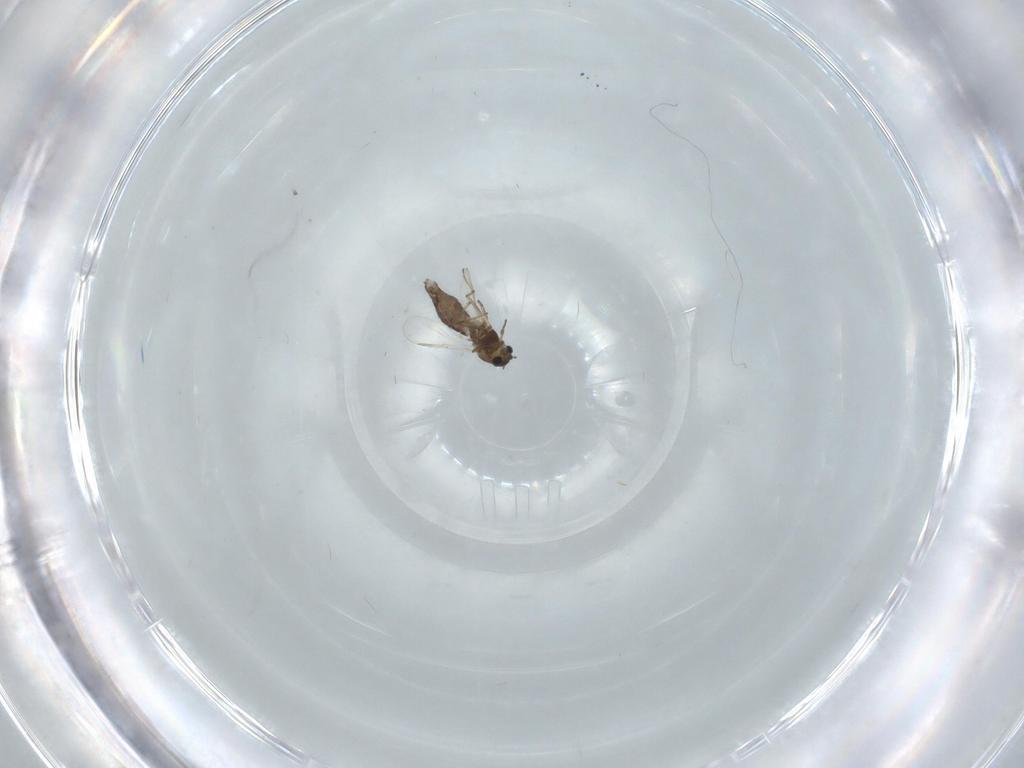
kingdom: Animalia
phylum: Arthropoda
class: Insecta
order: Diptera
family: Chironomidae
